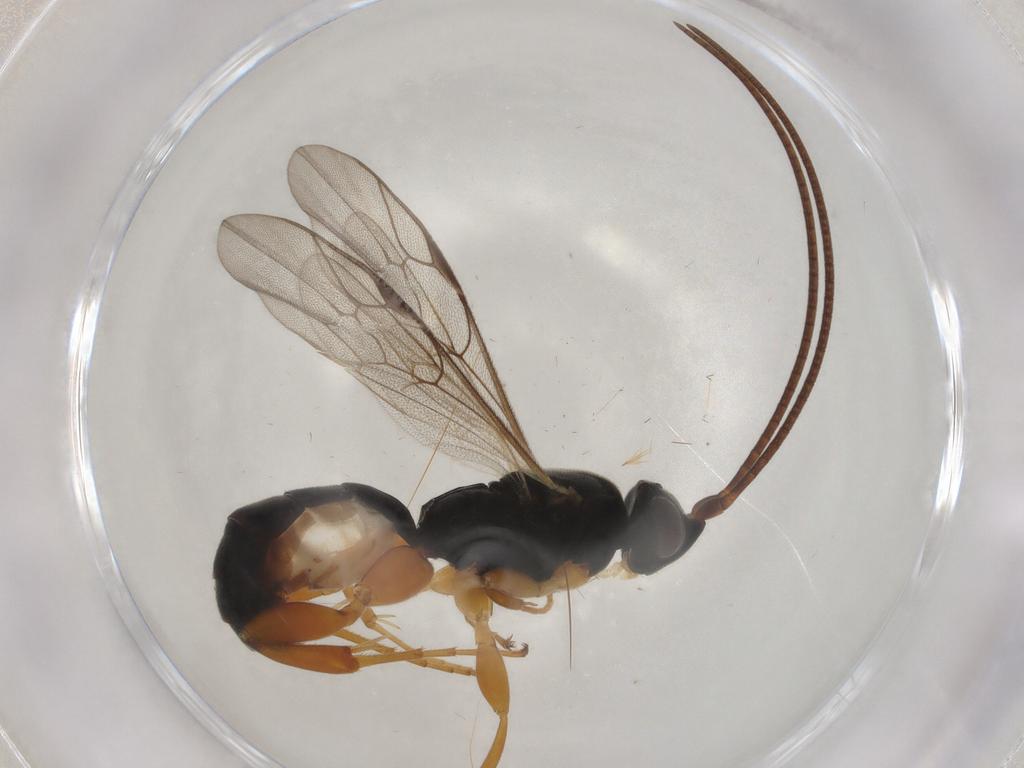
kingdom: Animalia
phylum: Arthropoda
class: Insecta
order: Hymenoptera
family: Ichneumonidae
